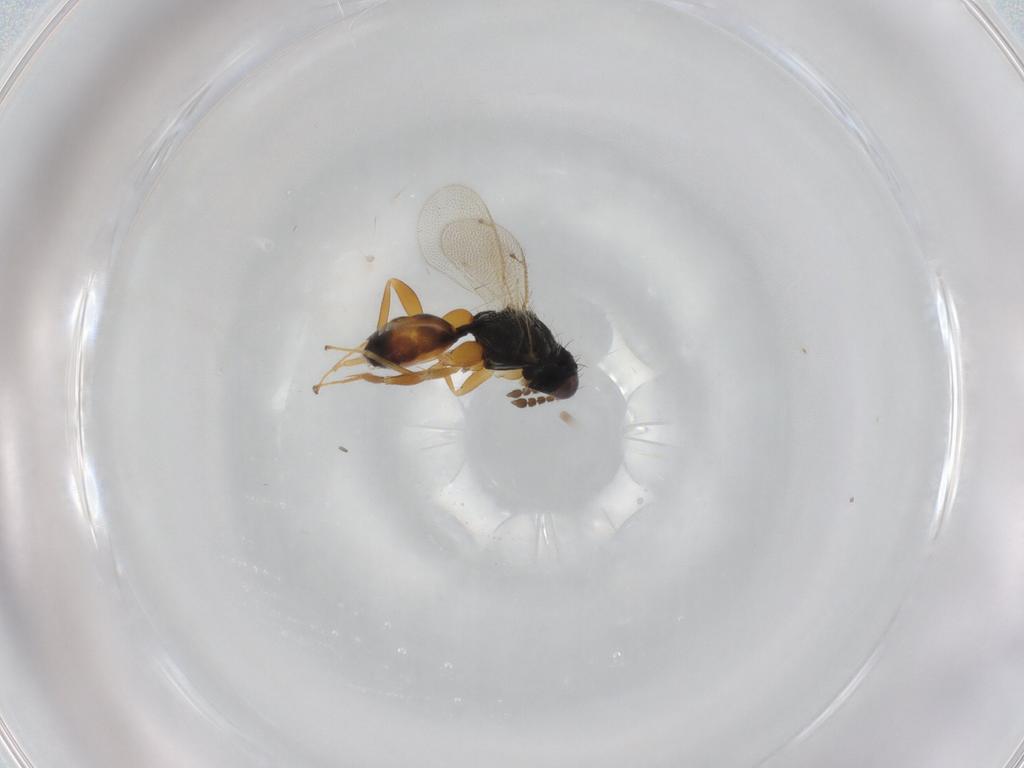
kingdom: Animalia
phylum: Arthropoda
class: Insecta
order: Hymenoptera
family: Eulophidae
